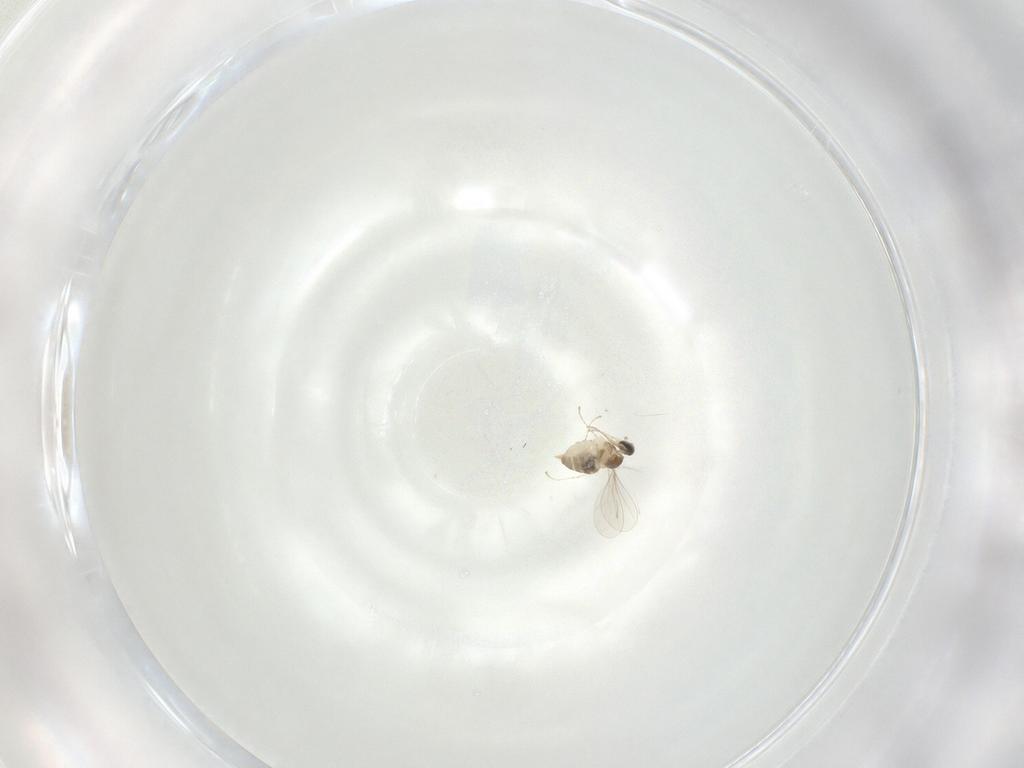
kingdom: Animalia
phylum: Arthropoda
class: Insecta
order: Diptera
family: Cecidomyiidae
